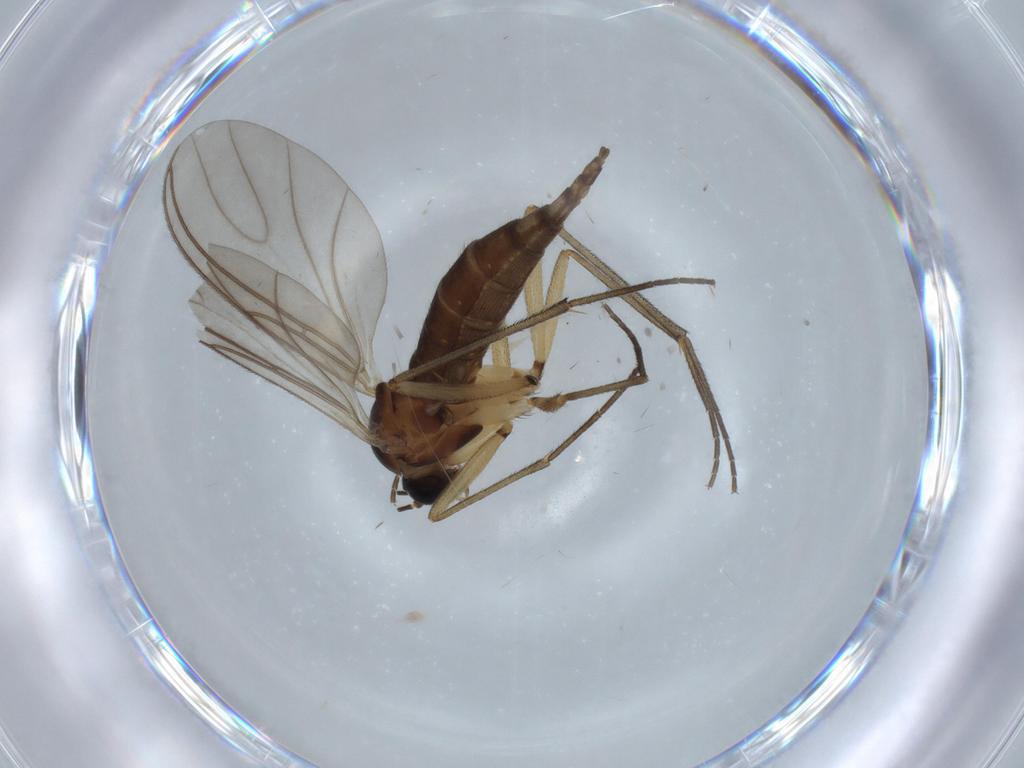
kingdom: Animalia
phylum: Arthropoda
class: Insecta
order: Diptera
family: Sciaridae
